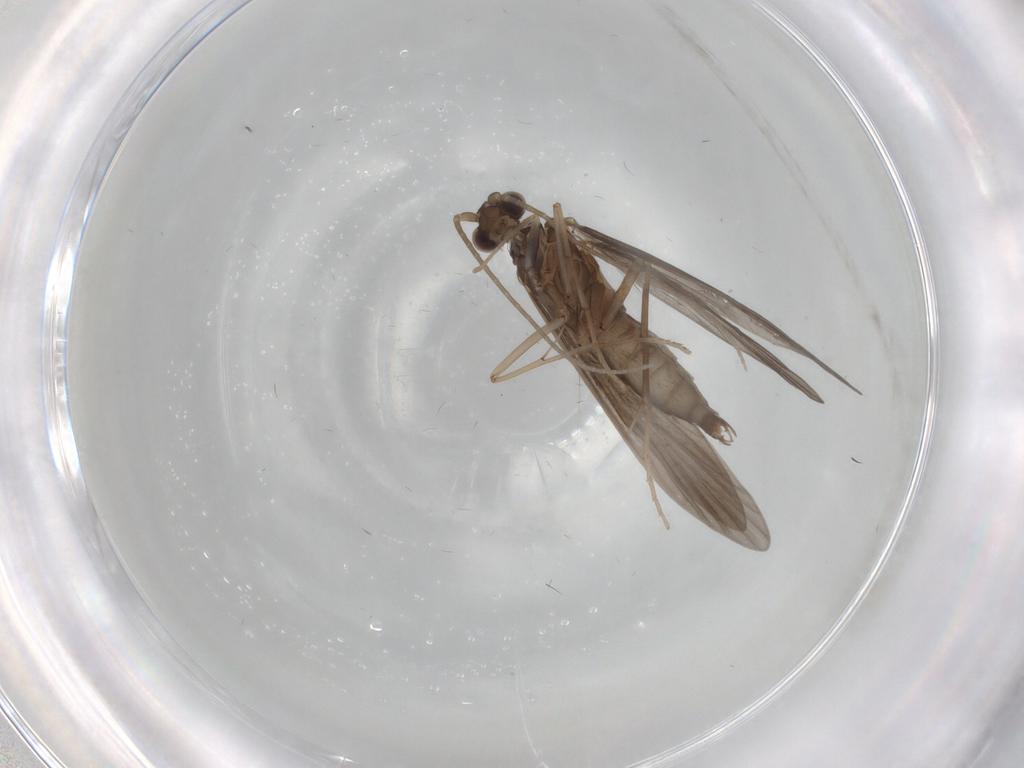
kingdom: Animalia
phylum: Arthropoda
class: Insecta
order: Trichoptera
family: Xiphocentronidae
